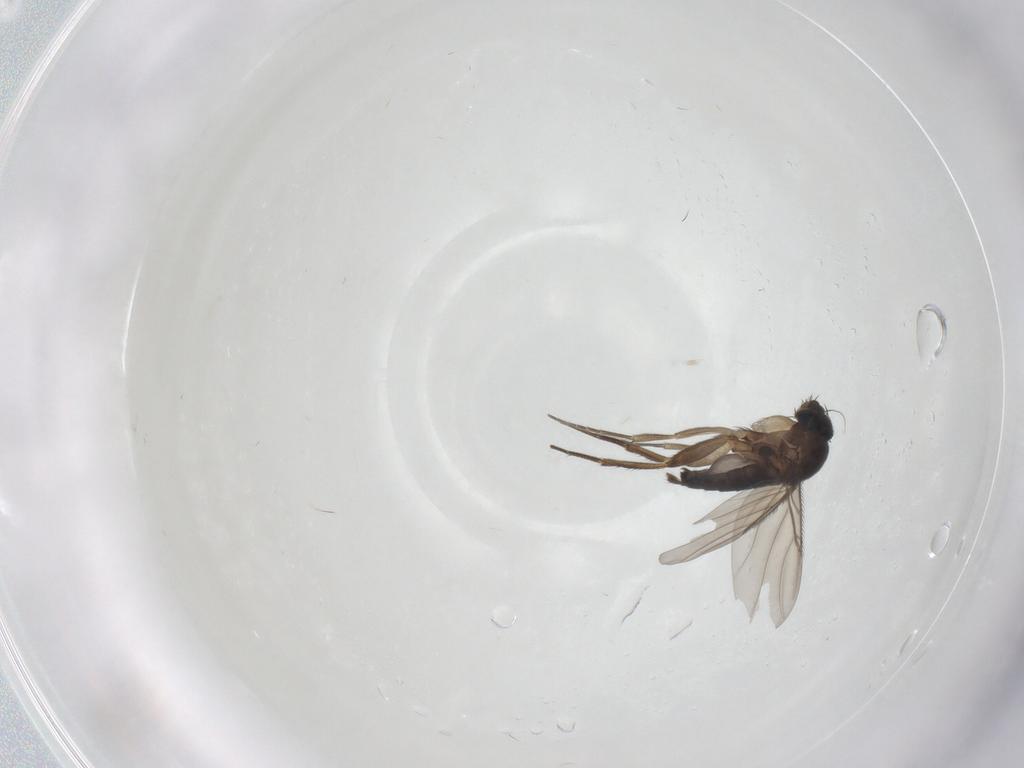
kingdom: Animalia
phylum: Arthropoda
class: Insecta
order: Diptera
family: Phoridae
